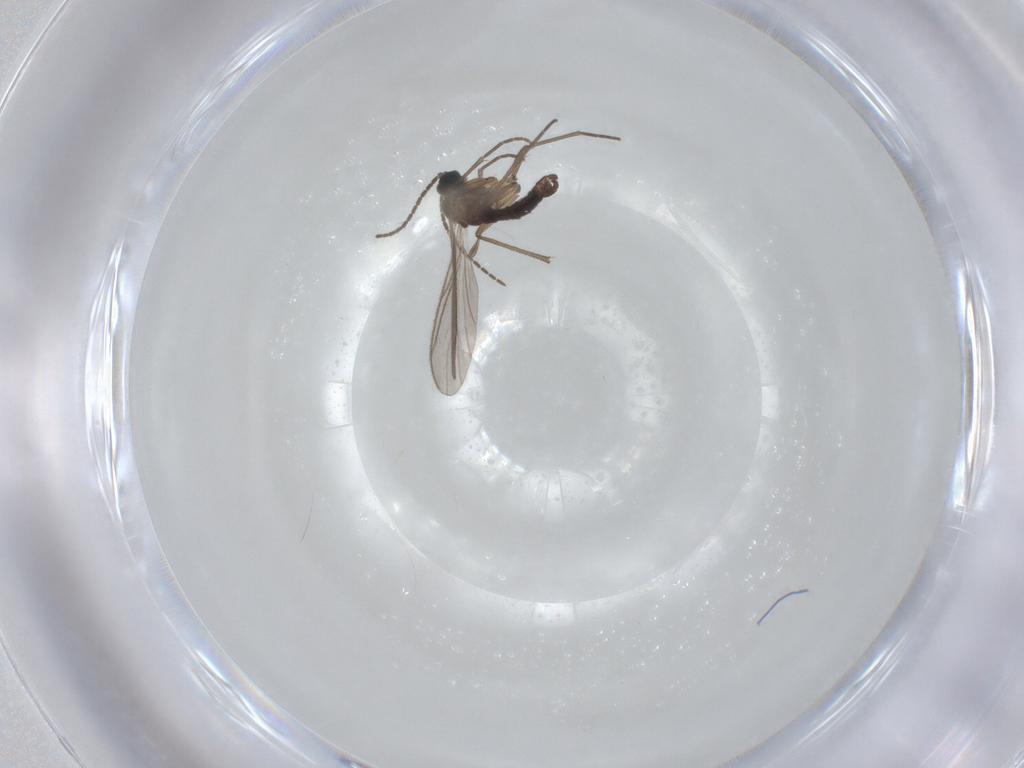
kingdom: Animalia
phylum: Arthropoda
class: Insecta
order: Diptera
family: Sciaridae
